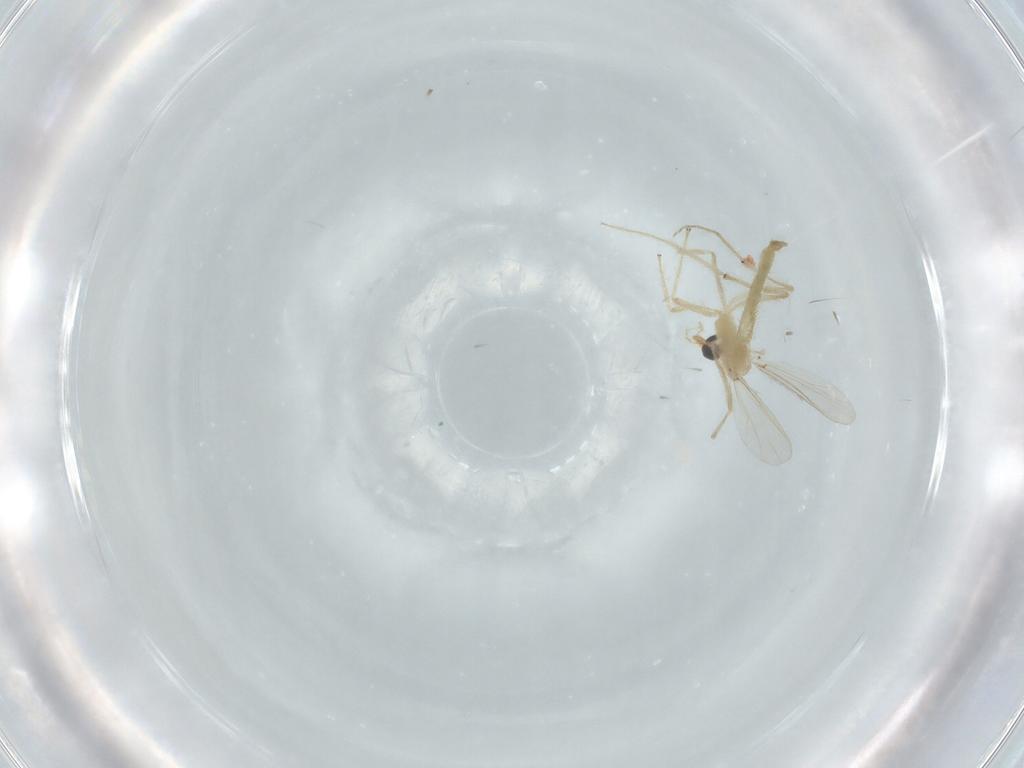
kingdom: Animalia
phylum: Arthropoda
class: Insecta
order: Diptera
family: Chironomidae
